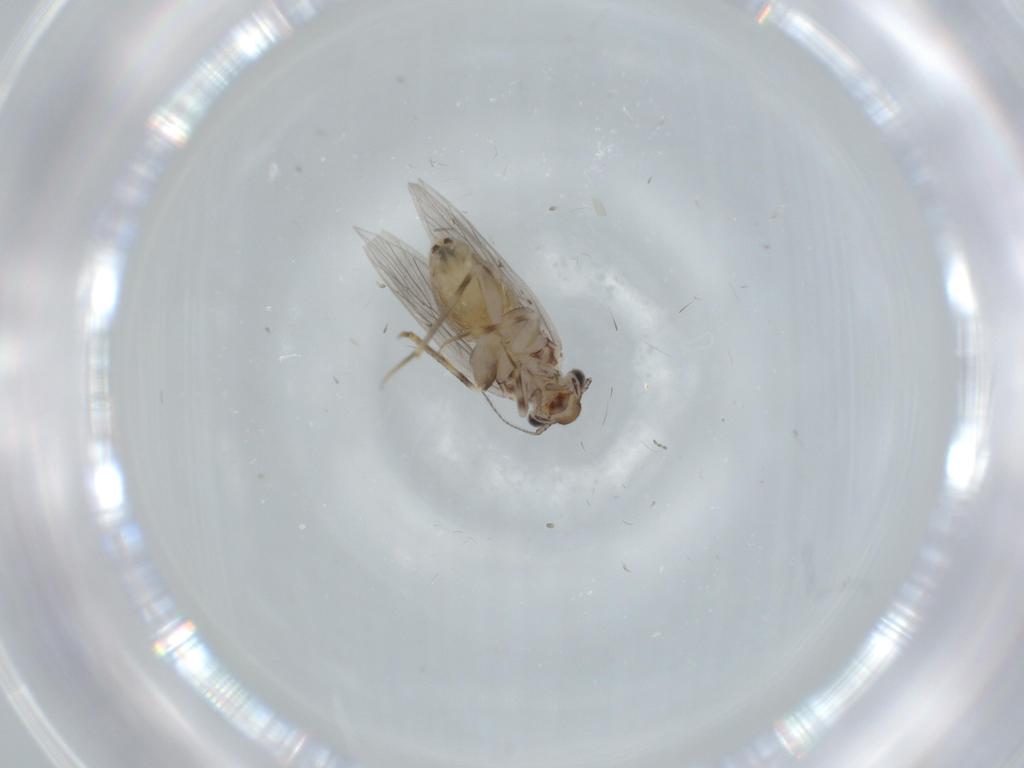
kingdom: Animalia
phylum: Arthropoda
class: Insecta
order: Psocodea
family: Lepidopsocidae
